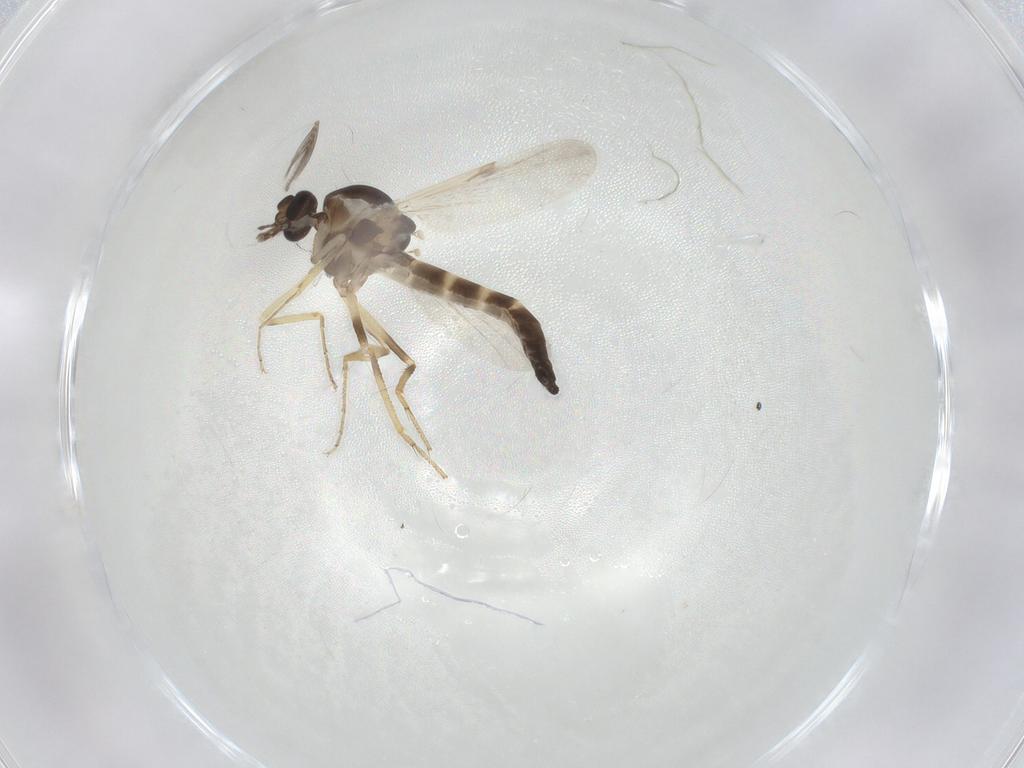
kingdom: Animalia
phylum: Arthropoda
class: Insecta
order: Diptera
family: Ceratopogonidae
